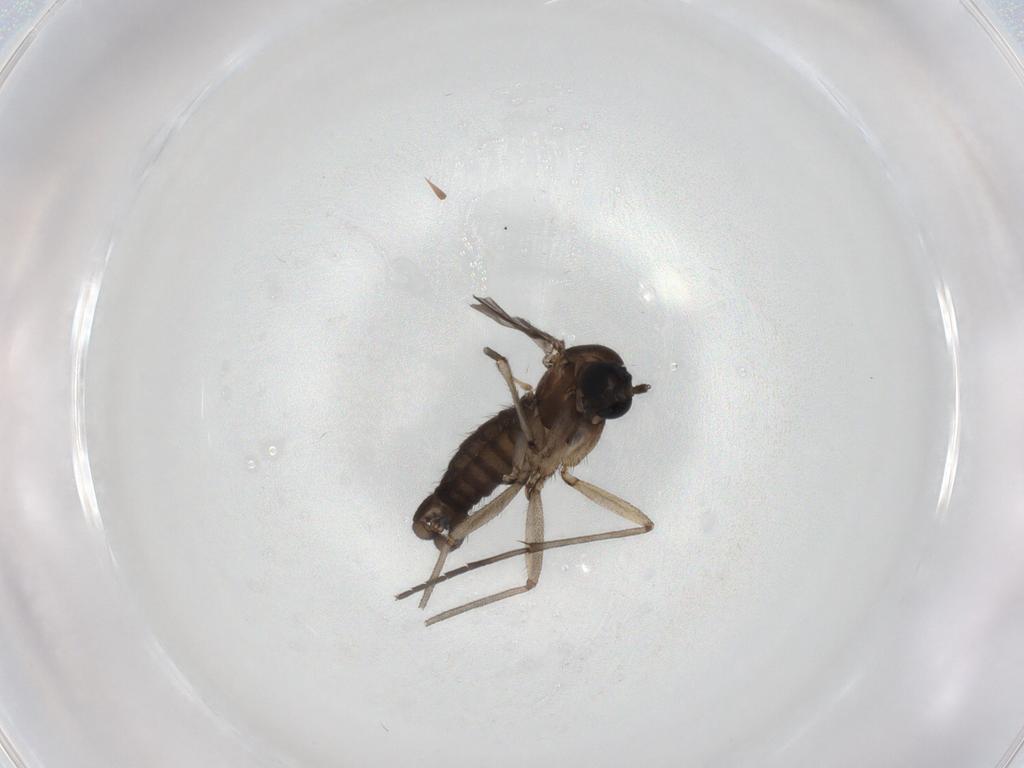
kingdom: Animalia
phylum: Arthropoda
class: Insecta
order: Diptera
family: Sciaridae
